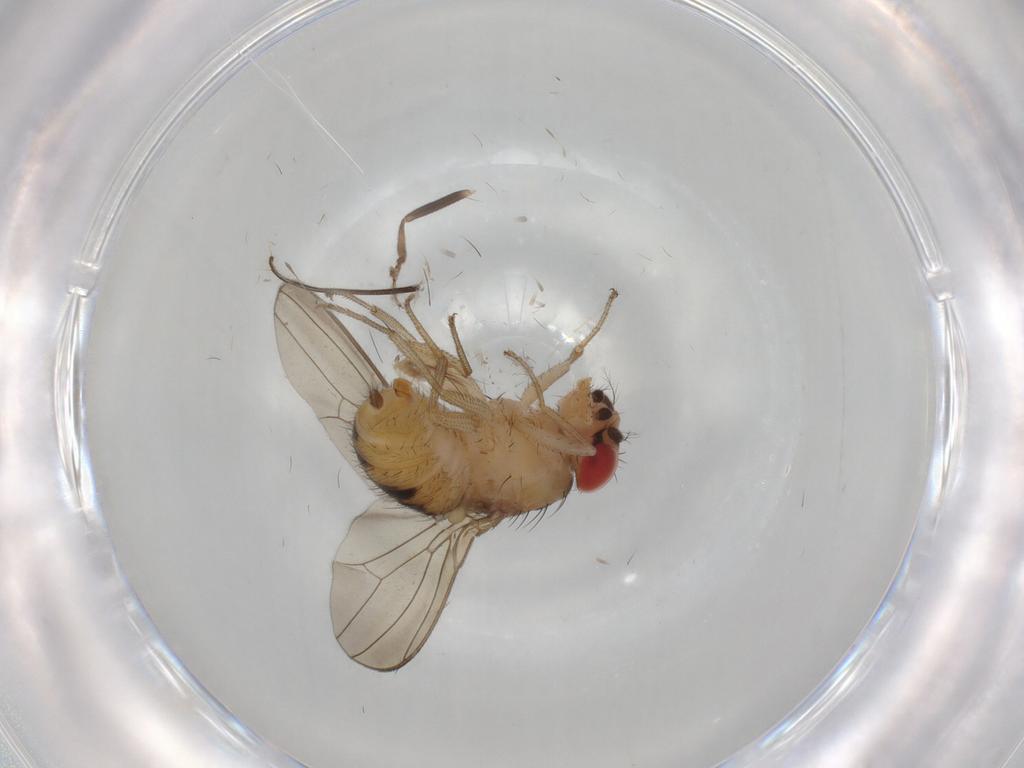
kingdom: Animalia
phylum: Arthropoda
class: Insecta
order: Diptera
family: Drosophilidae
